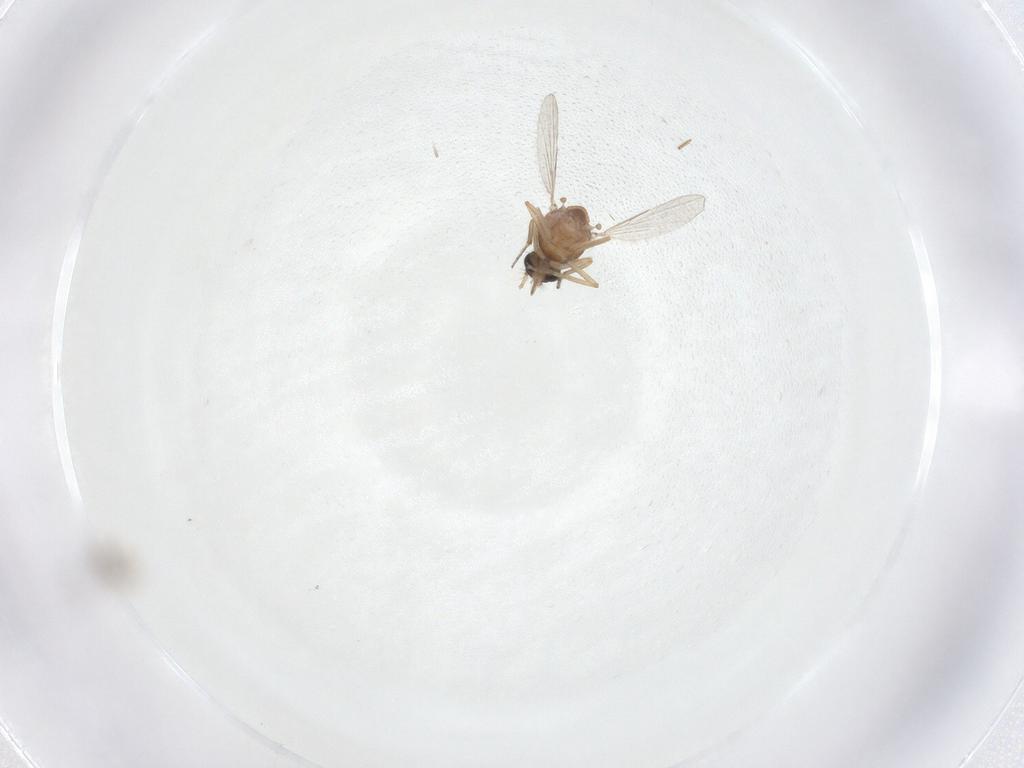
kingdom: Animalia
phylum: Arthropoda
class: Insecta
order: Diptera
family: Ceratopogonidae
